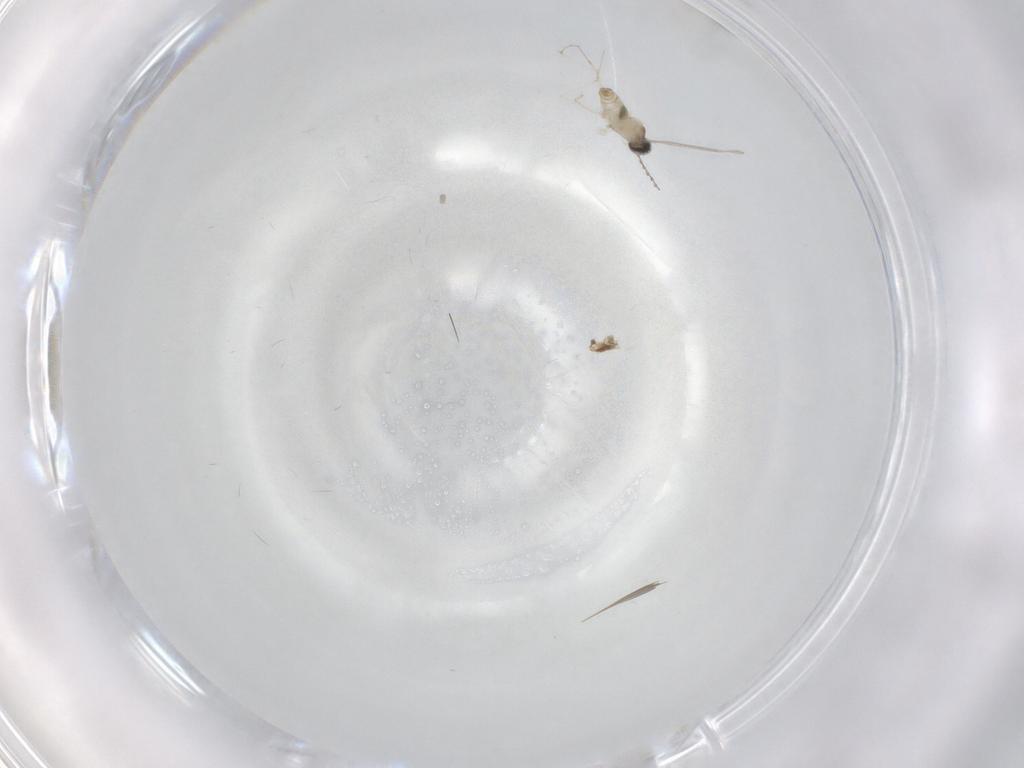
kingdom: Animalia
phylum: Arthropoda
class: Insecta
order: Diptera
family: Cecidomyiidae
